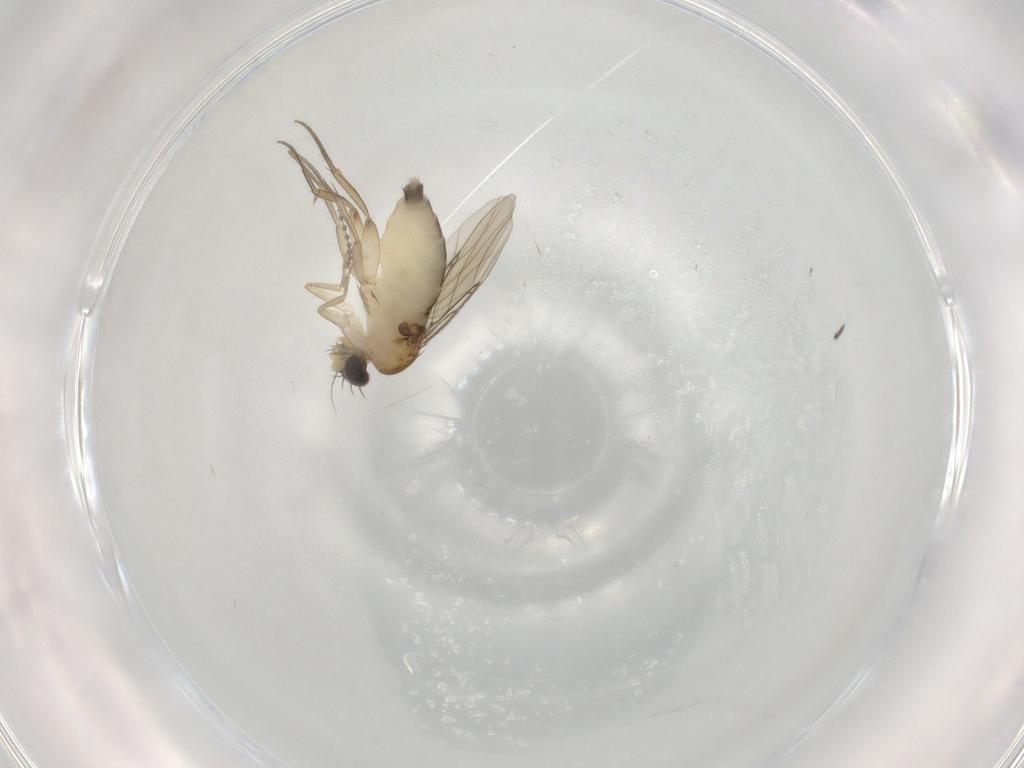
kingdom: Animalia
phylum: Arthropoda
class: Insecta
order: Diptera
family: Phoridae
